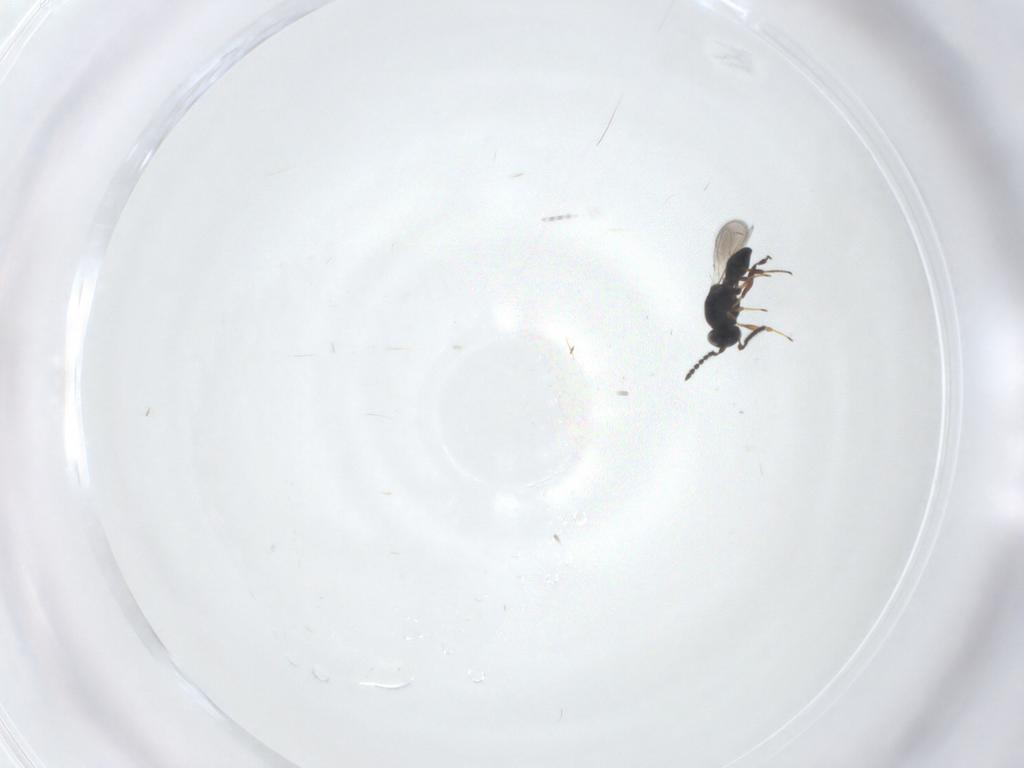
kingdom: Animalia
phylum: Arthropoda
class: Insecta
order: Hymenoptera
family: Platygastridae
